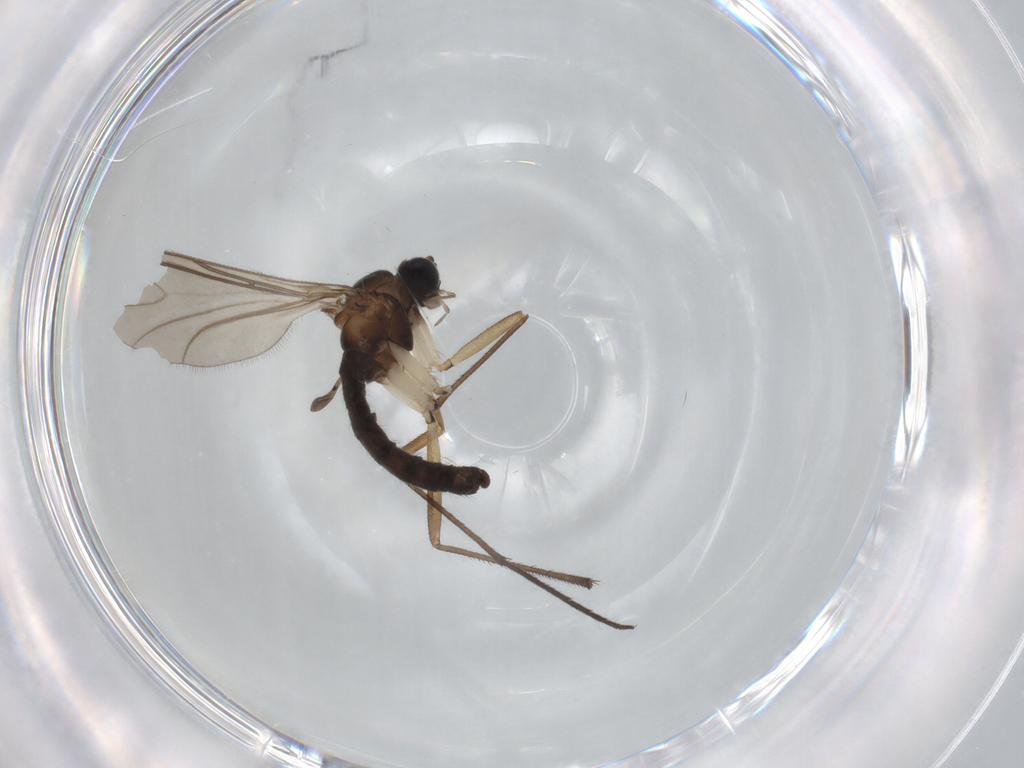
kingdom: Animalia
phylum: Arthropoda
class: Insecta
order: Diptera
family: Sciaridae
